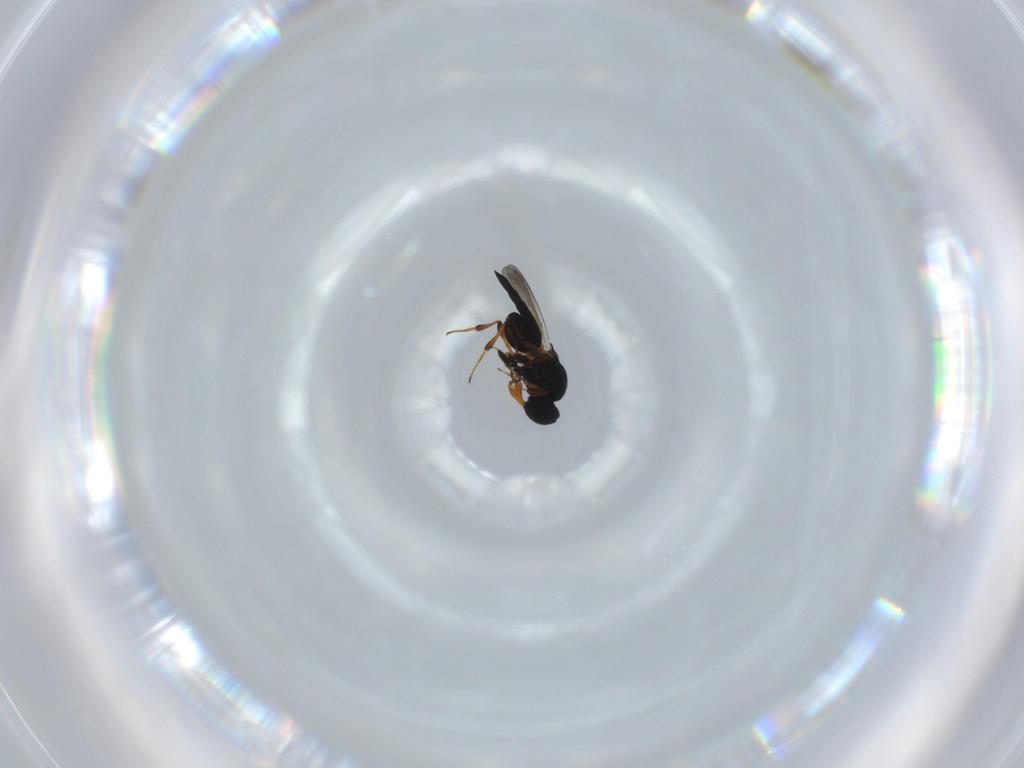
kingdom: Animalia
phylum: Arthropoda
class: Insecta
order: Hymenoptera
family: Platygastridae
